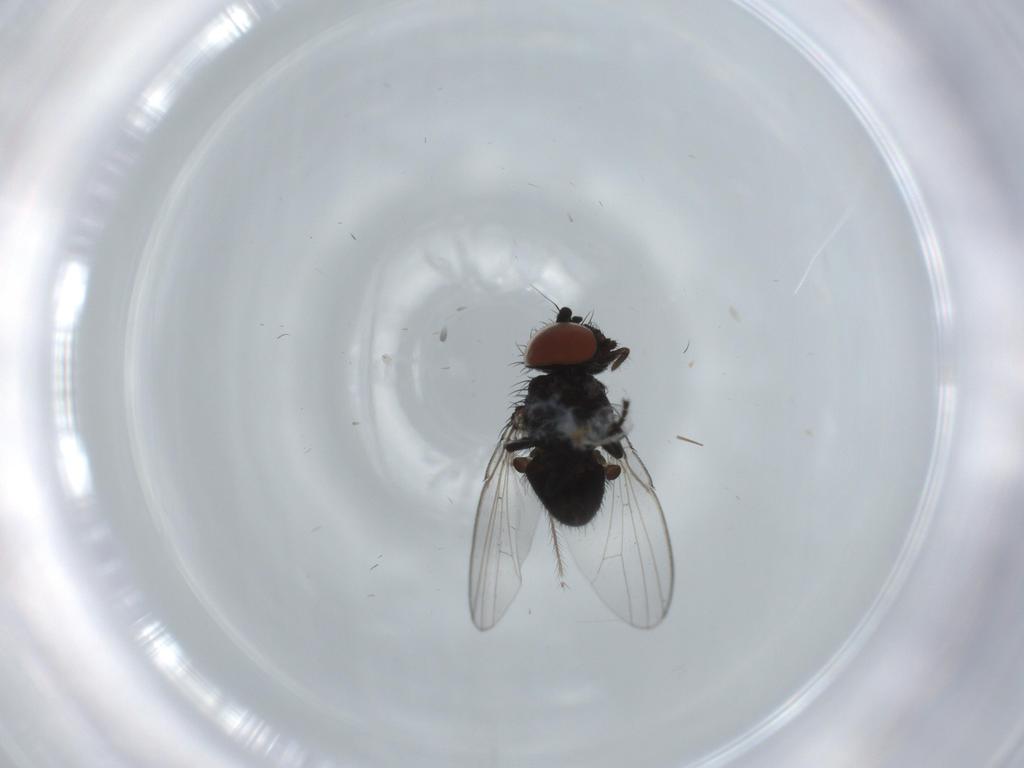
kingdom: Animalia
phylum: Arthropoda
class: Insecta
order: Diptera
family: Milichiidae
